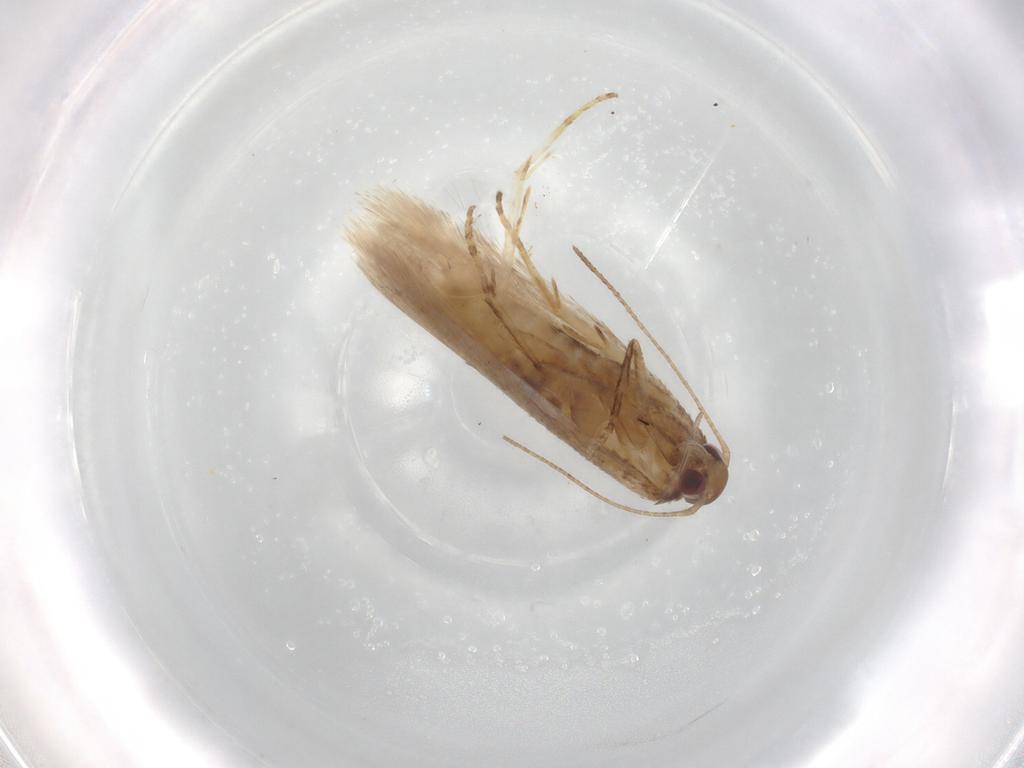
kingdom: Animalia
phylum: Arthropoda
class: Insecta
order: Lepidoptera
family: Gelechiidae
